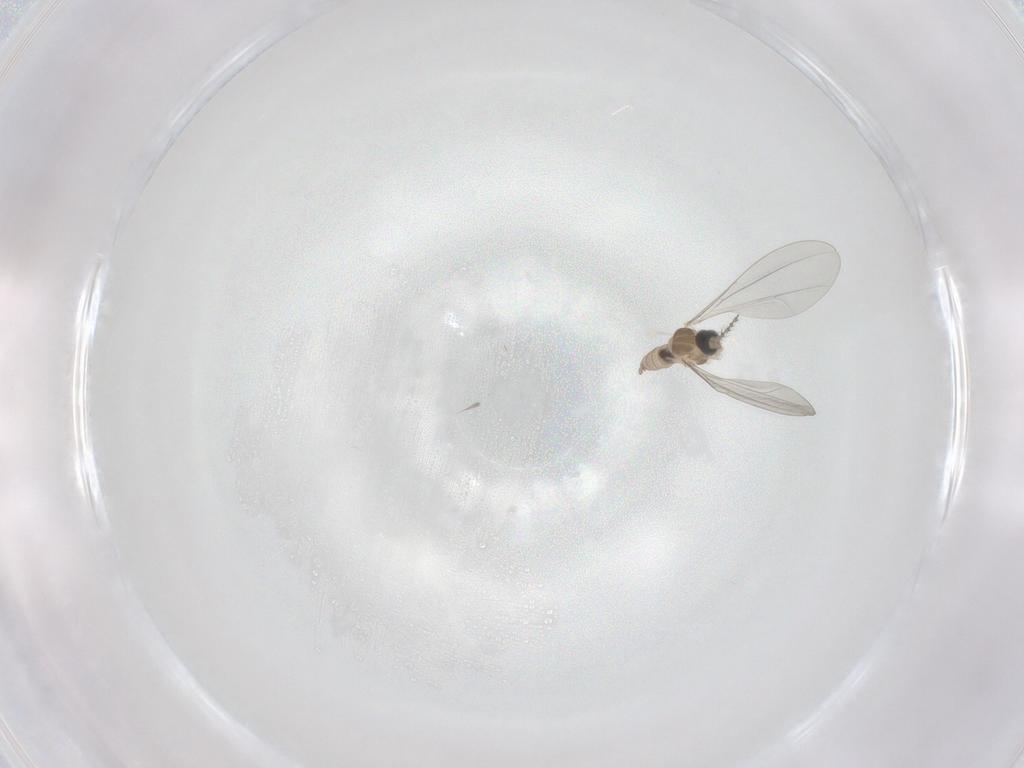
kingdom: Animalia
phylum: Arthropoda
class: Insecta
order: Diptera
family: Cecidomyiidae
